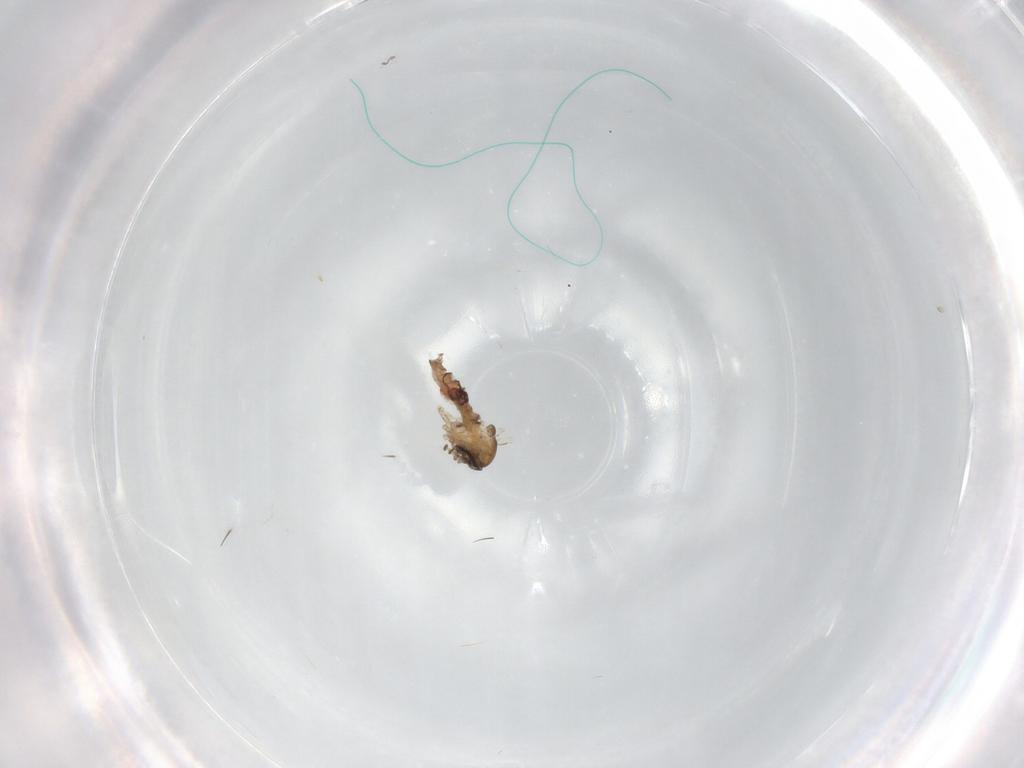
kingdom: Animalia
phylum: Arthropoda
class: Insecta
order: Diptera
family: Psychodidae
